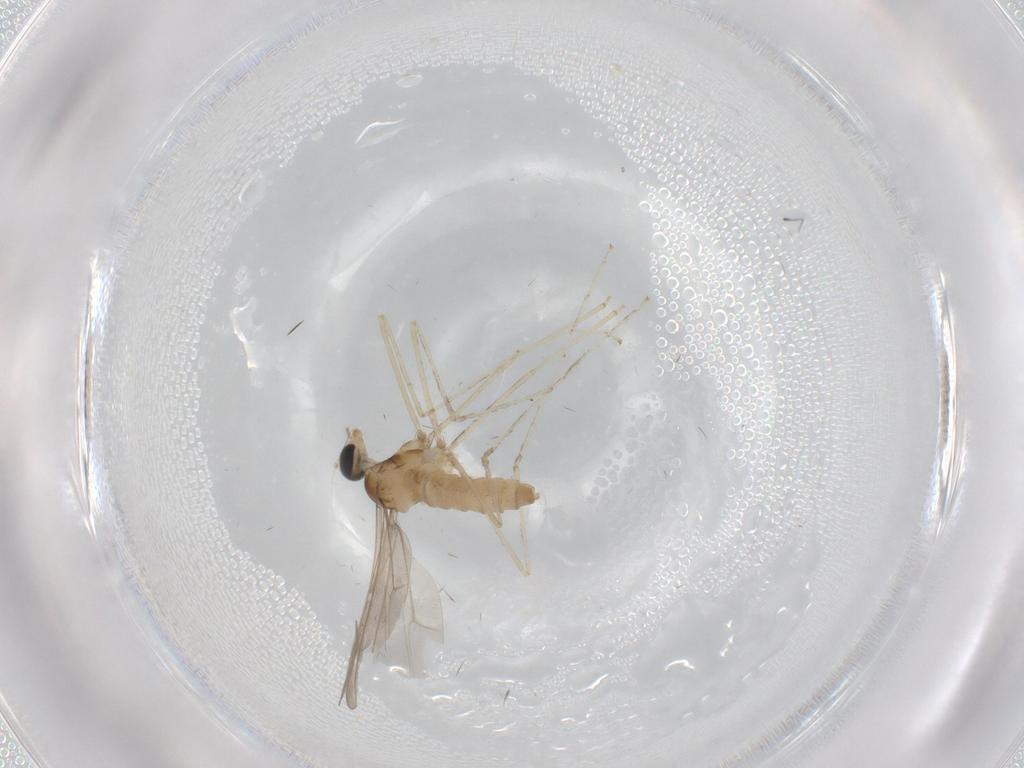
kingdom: Animalia
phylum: Arthropoda
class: Insecta
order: Diptera
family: Cecidomyiidae
